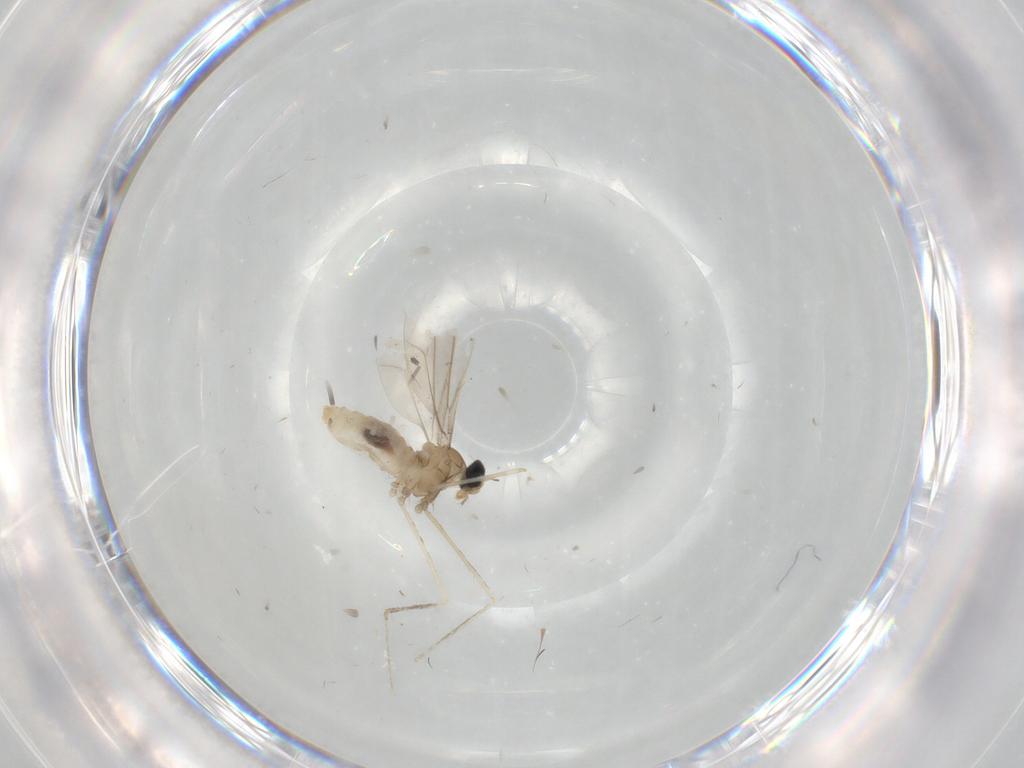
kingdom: Animalia
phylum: Arthropoda
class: Insecta
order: Diptera
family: Cecidomyiidae
